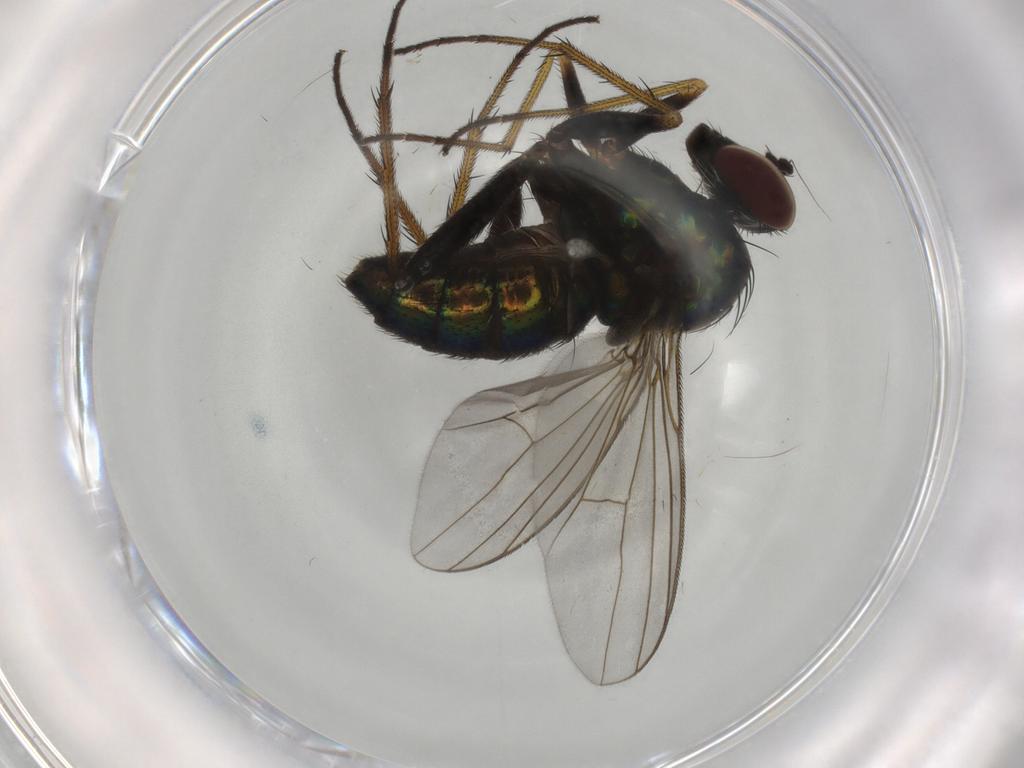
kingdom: Animalia
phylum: Arthropoda
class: Insecta
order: Diptera
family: Dolichopodidae
